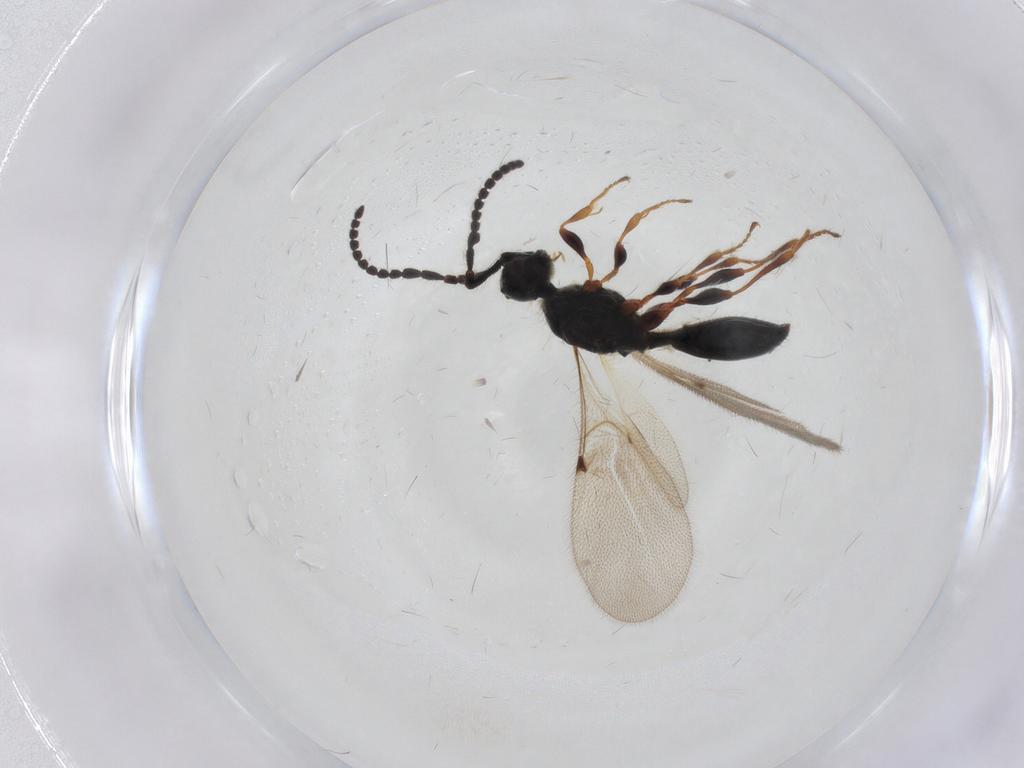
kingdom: Animalia
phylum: Arthropoda
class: Insecta
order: Hymenoptera
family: Diapriidae
